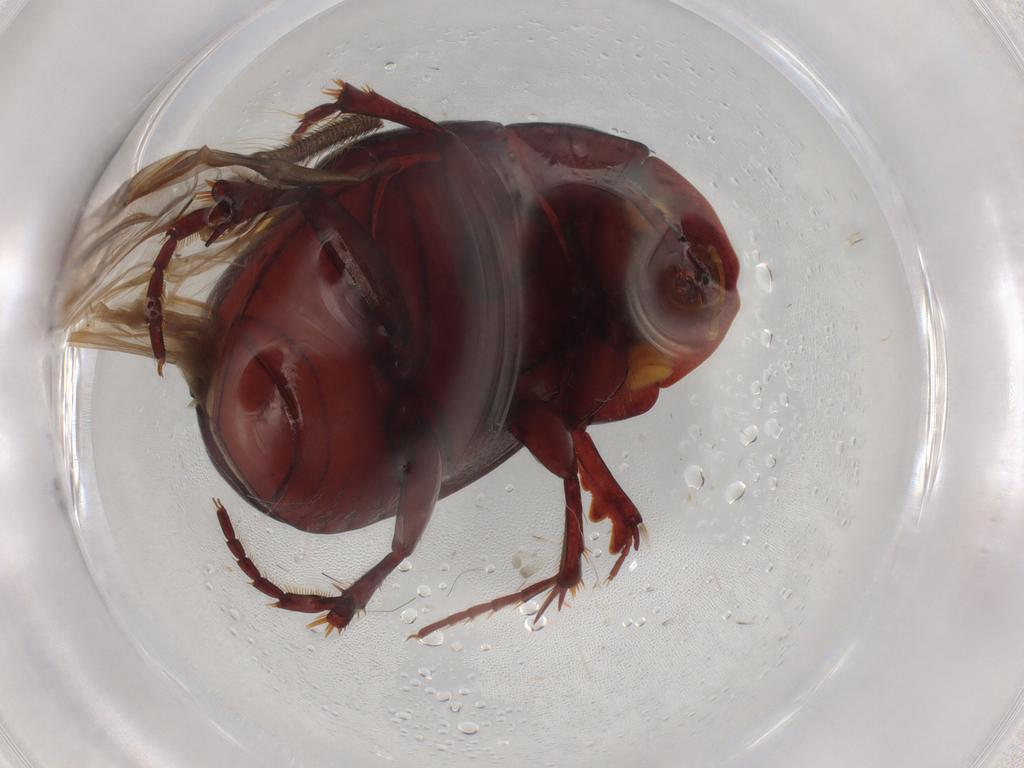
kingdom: Animalia
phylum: Arthropoda
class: Insecta
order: Coleoptera
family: Scarabaeidae
